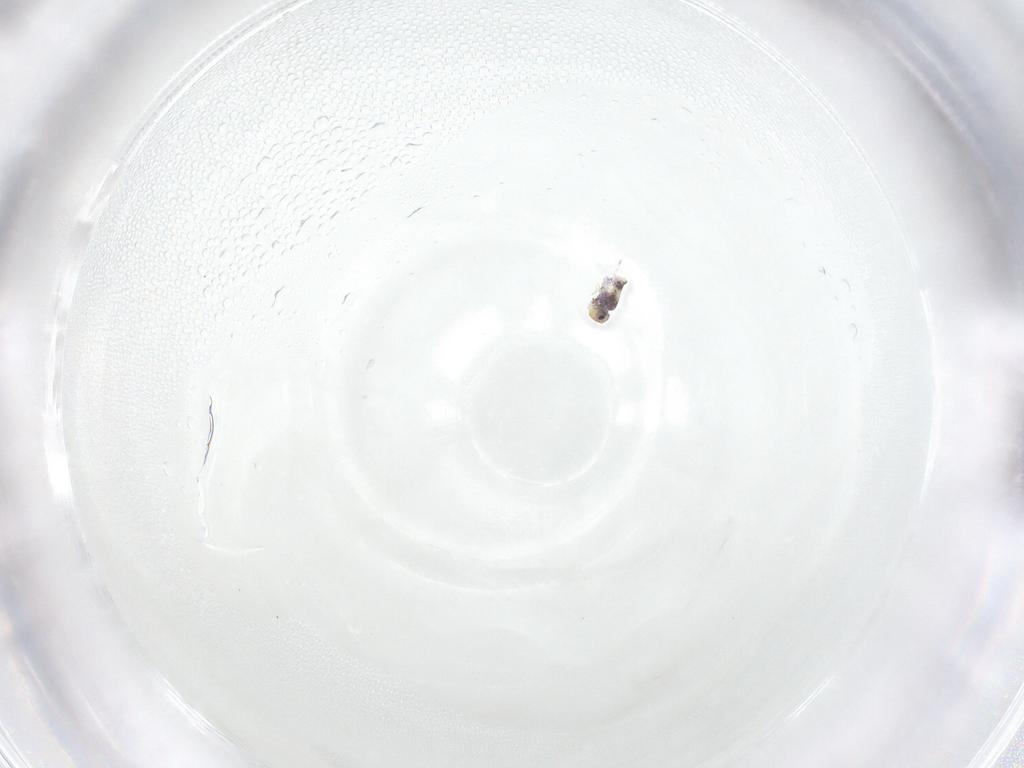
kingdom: Animalia
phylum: Arthropoda
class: Collembola
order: Symphypleona
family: Bourletiellidae
